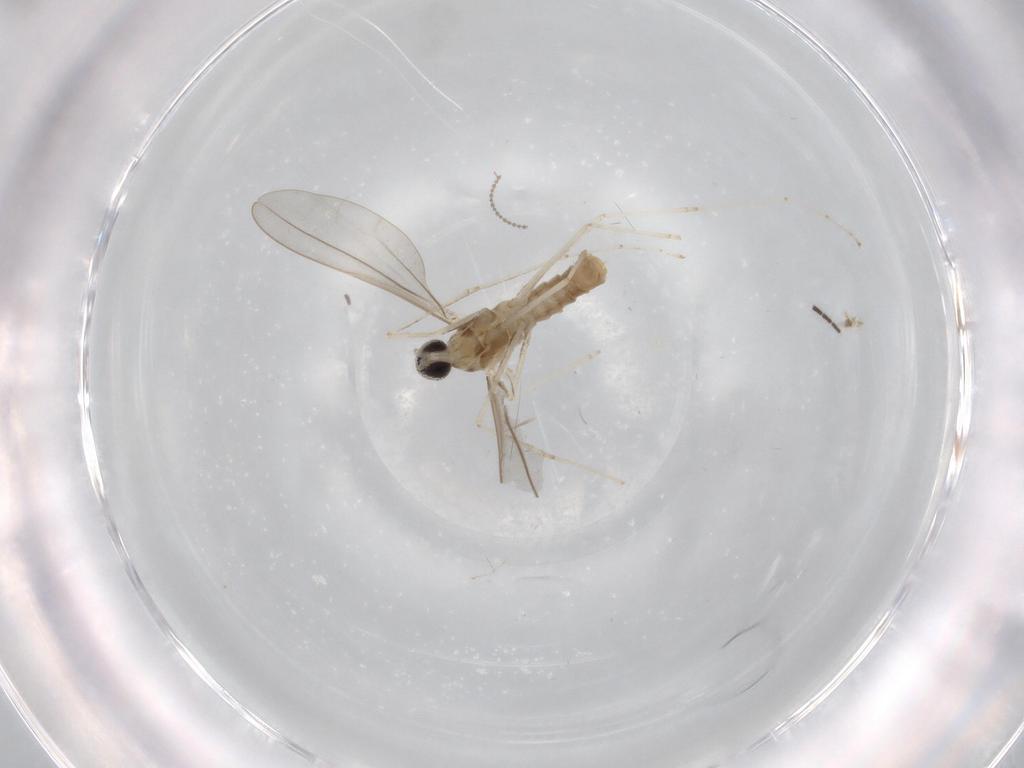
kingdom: Animalia
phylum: Arthropoda
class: Insecta
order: Diptera
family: Cecidomyiidae
